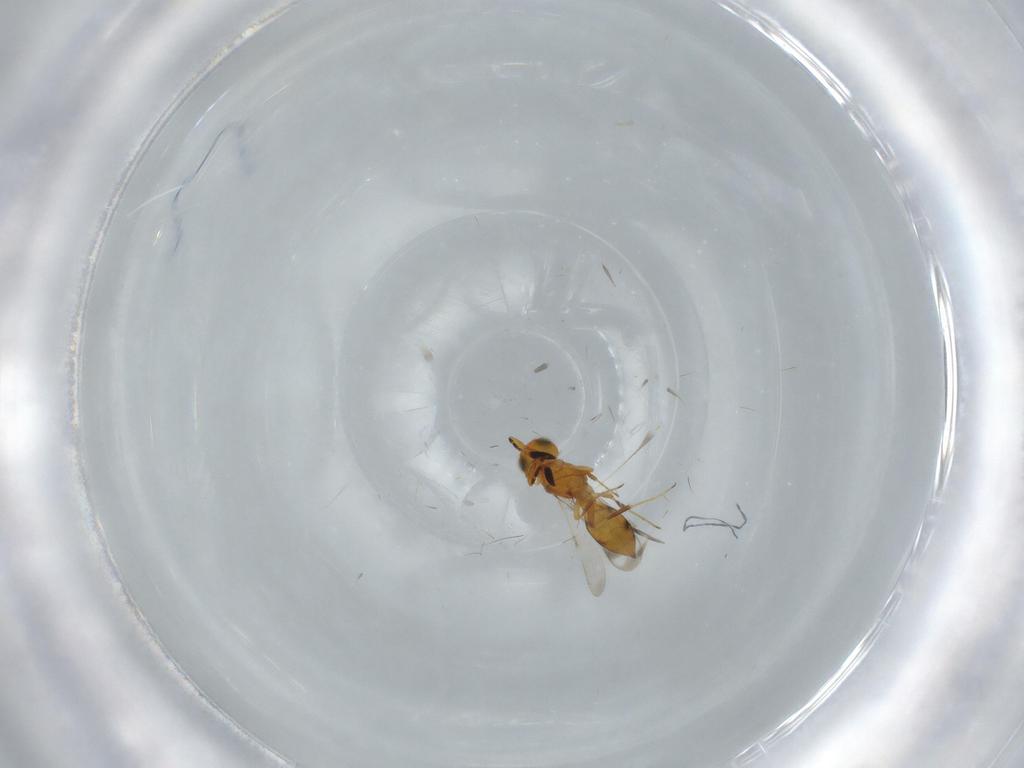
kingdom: Animalia
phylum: Arthropoda
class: Insecta
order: Hymenoptera
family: Scelionidae
